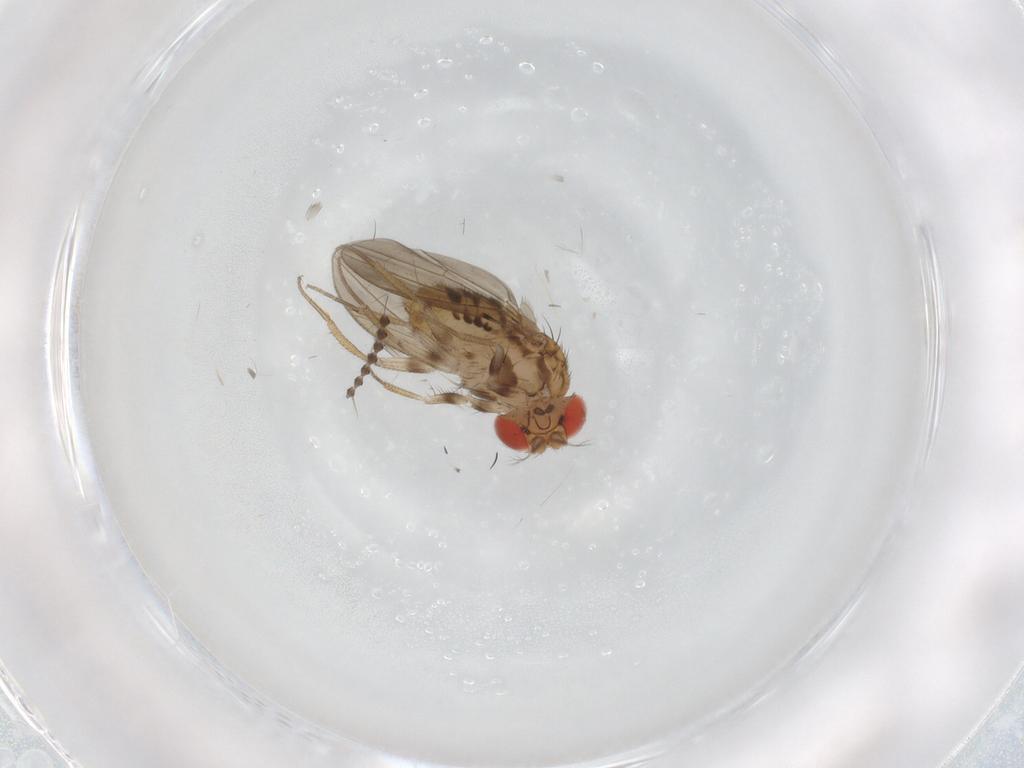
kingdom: Animalia
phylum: Arthropoda
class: Insecta
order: Diptera
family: Drosophilidae
